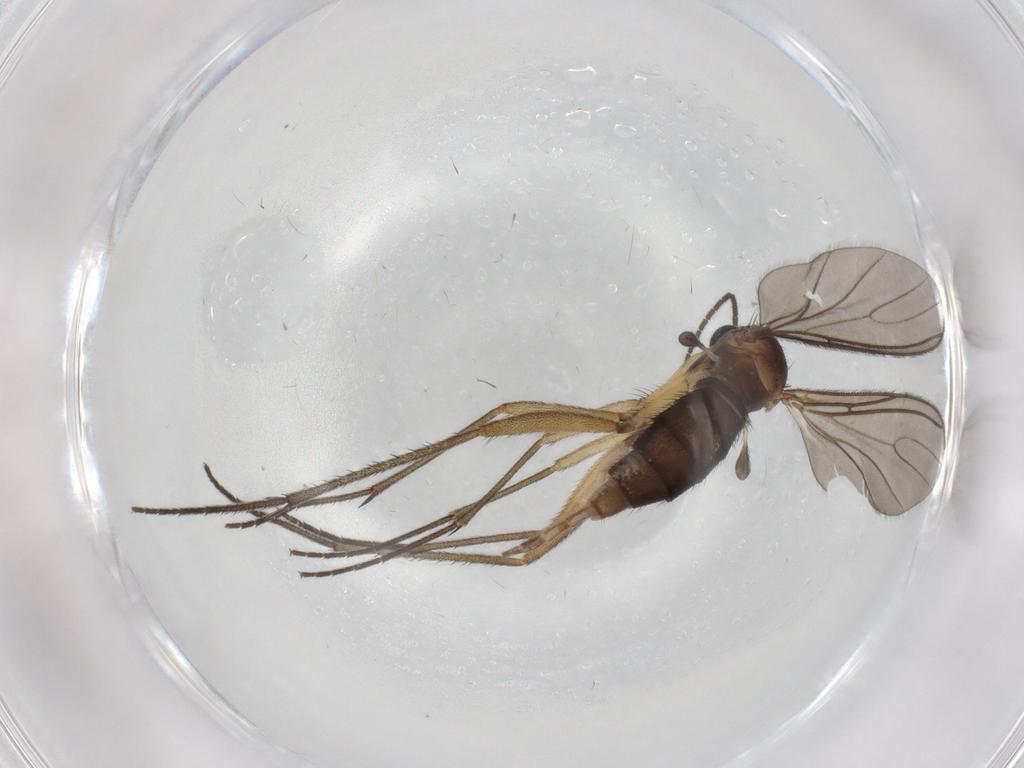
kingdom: Animalia
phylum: Arthropoda
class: Insecta
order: Diptera
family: Sciaridae
